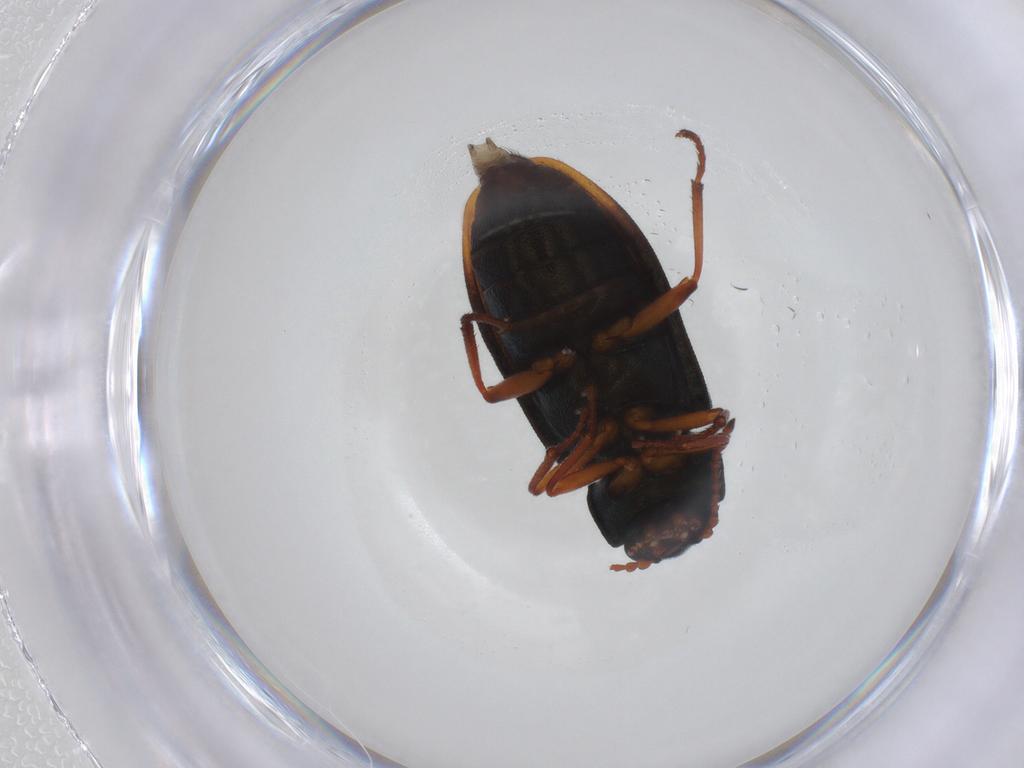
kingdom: Animalia
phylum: Arthropoda
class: Insecta
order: Coleoptera
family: Melyridae
